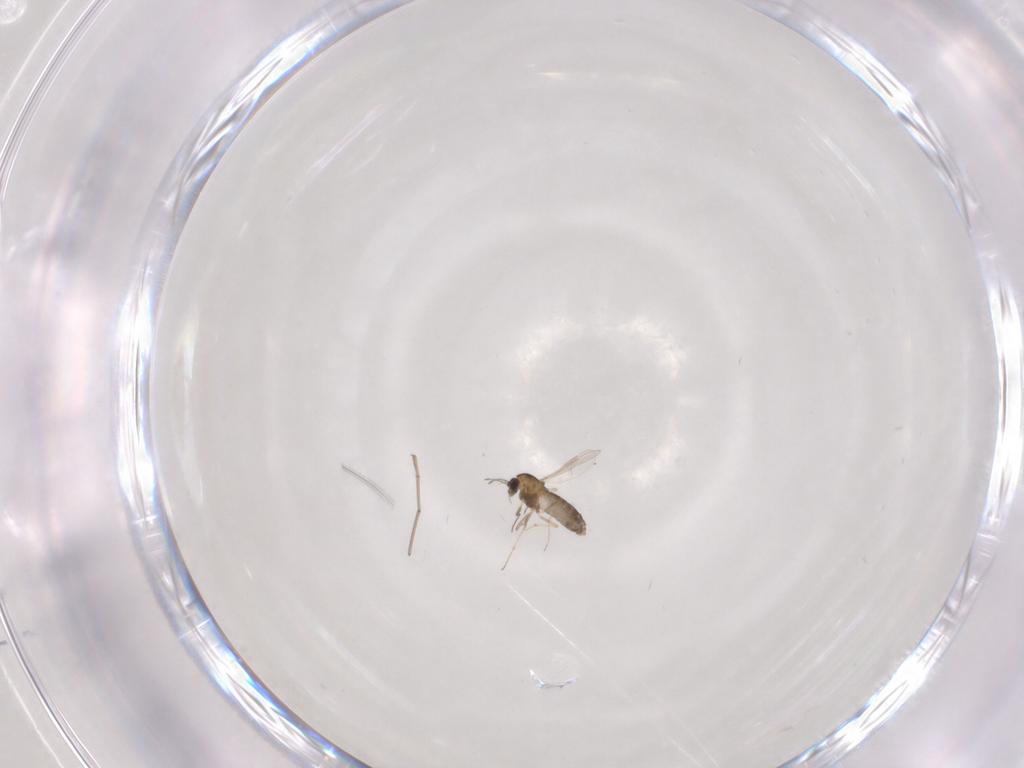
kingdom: Animalia
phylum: Arthropoda
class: Insecta
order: Diptera
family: Chironomidae
